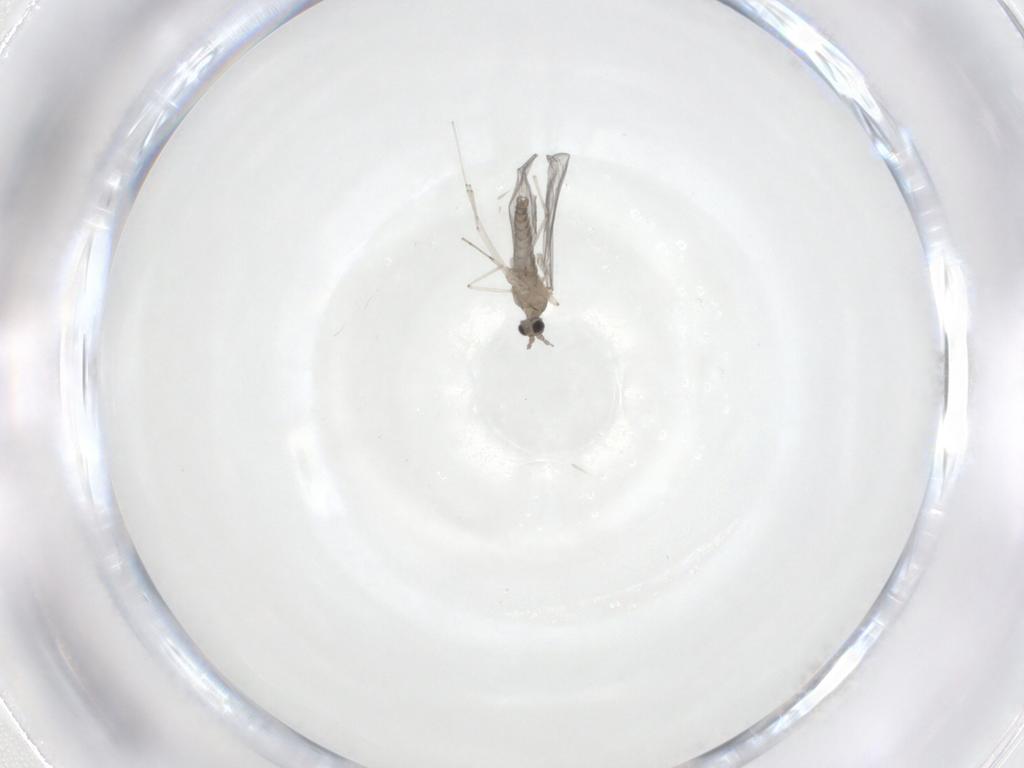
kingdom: Animalia
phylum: Arthropoda
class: Insecta
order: Diptera
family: Cecidomyiidae
